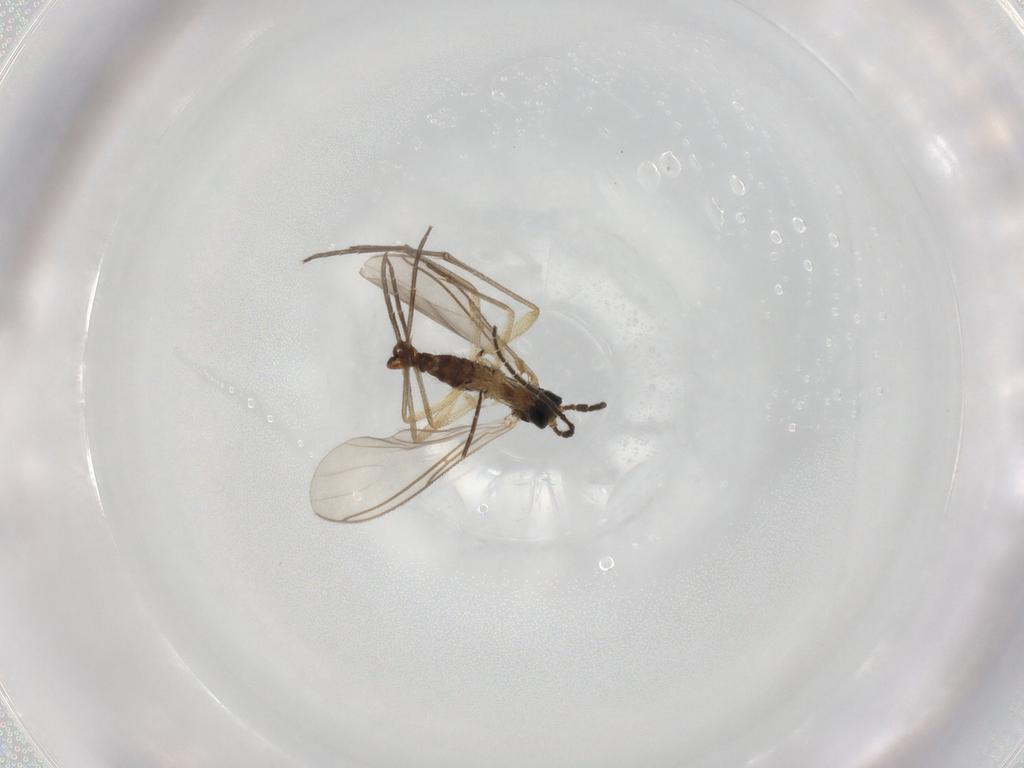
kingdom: Animalia
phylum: Arthropoda
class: Insecta
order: Diptera
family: Sciaridae
